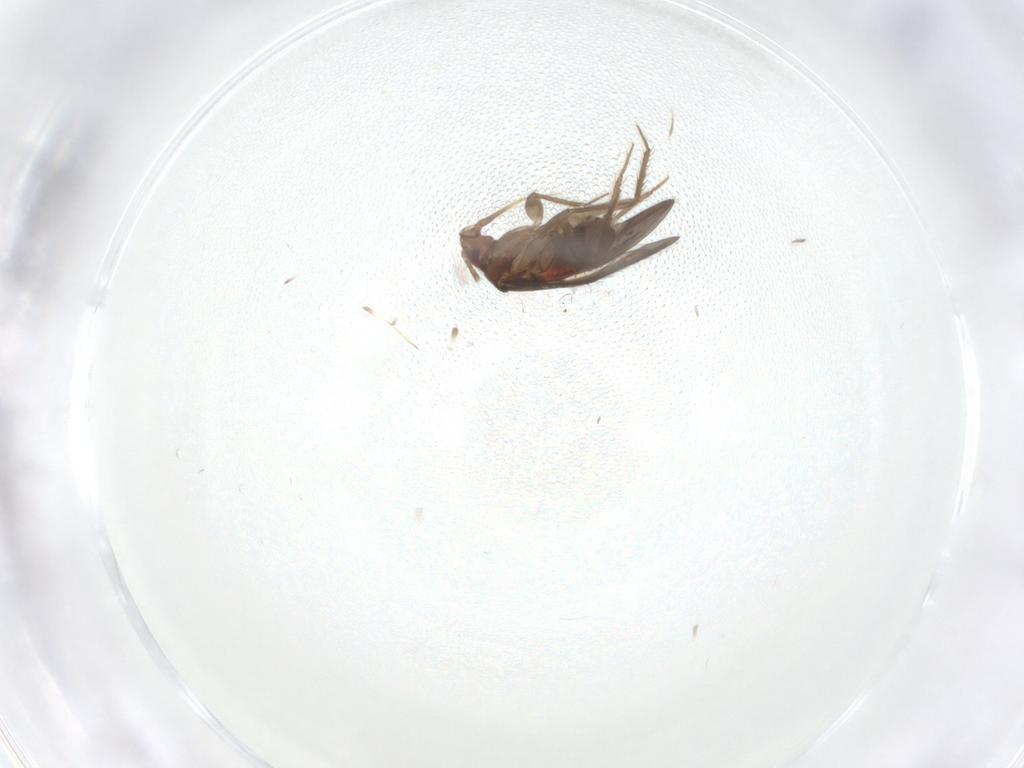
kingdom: Animalia
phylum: Arthropoda
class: Insecta
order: Hemiptera
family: Ceratocombidae
